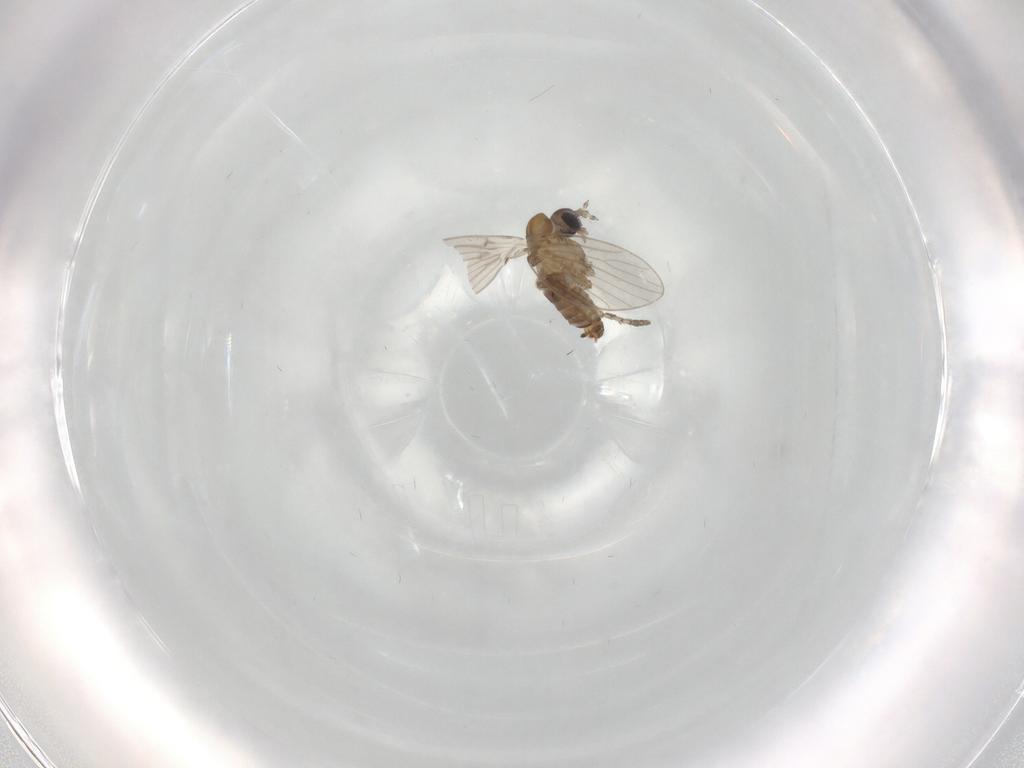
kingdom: Animalia
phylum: Arthropoda
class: Insecta
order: Diptera
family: Psychodidae
